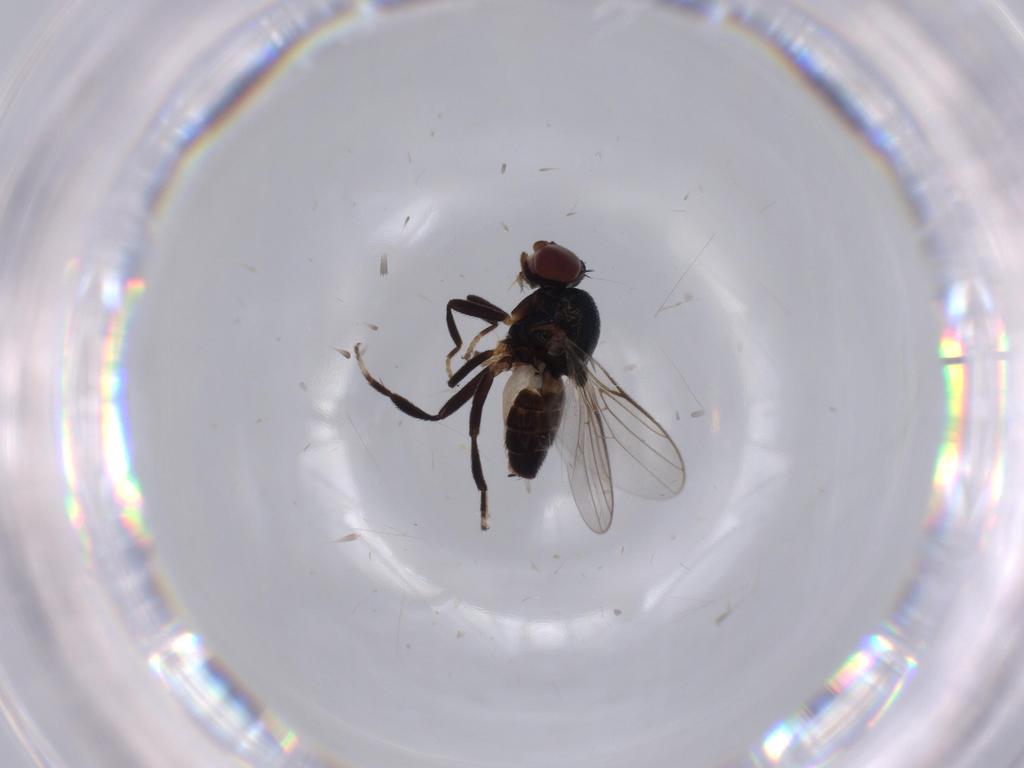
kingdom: Animalia
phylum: Arthropoda
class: Insecta
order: Diptera
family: Chloropidae
